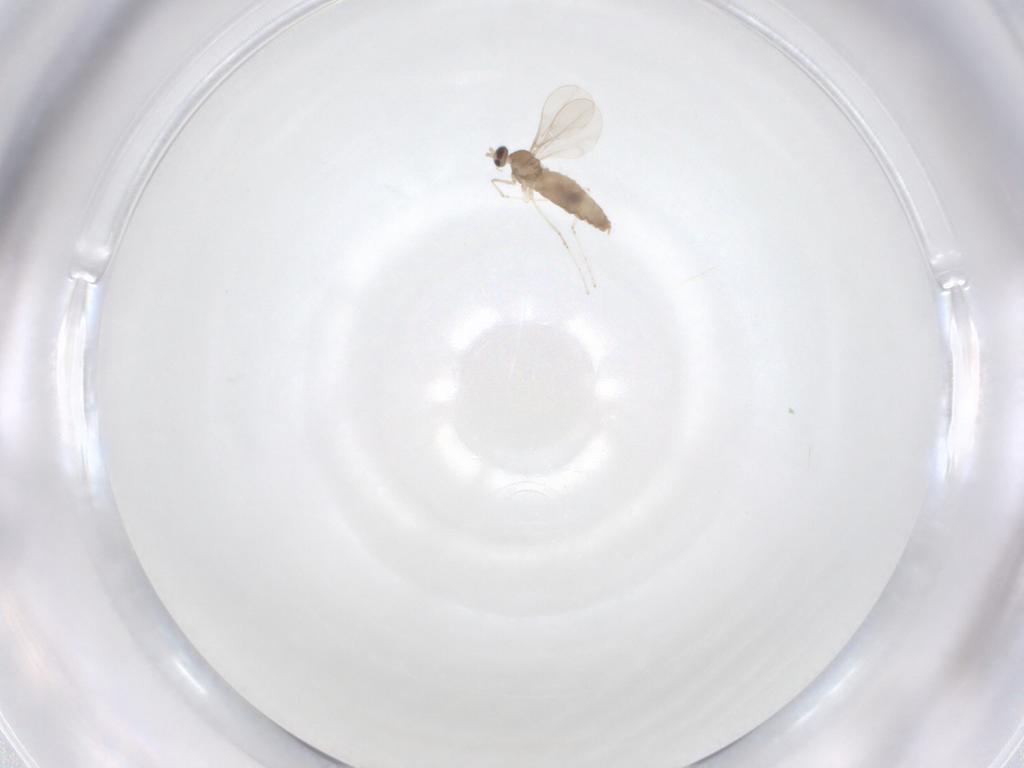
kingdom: Animalia
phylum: Arthropoda
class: Insecta
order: Diptera
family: Cecidomyiidae
